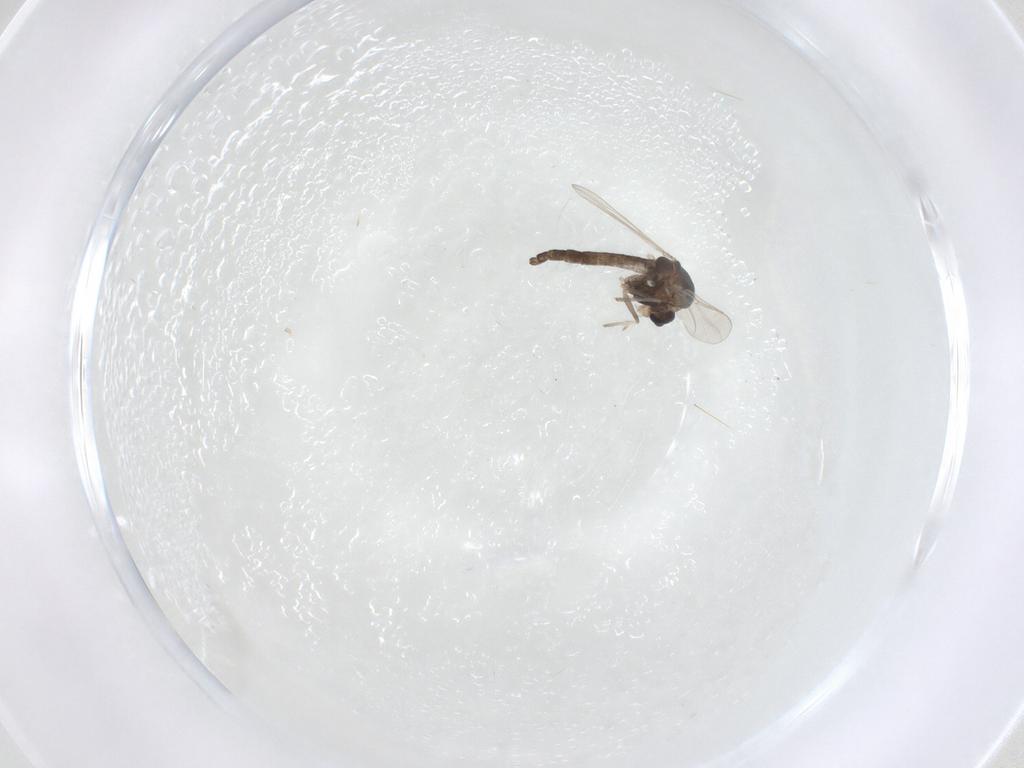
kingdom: Animalia
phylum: Arthropoda
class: Insecta
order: Diptera
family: Chironomidae
